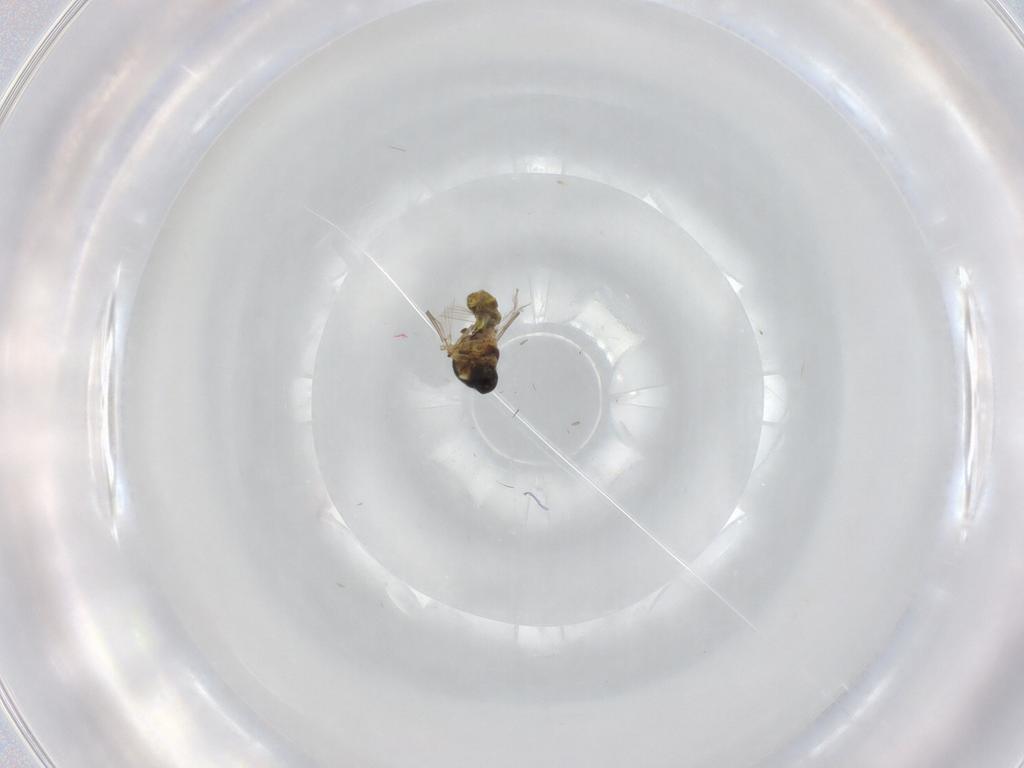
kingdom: Animalia
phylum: Arthropoda
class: Insecta
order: Diptera
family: Ceratopogonidae
